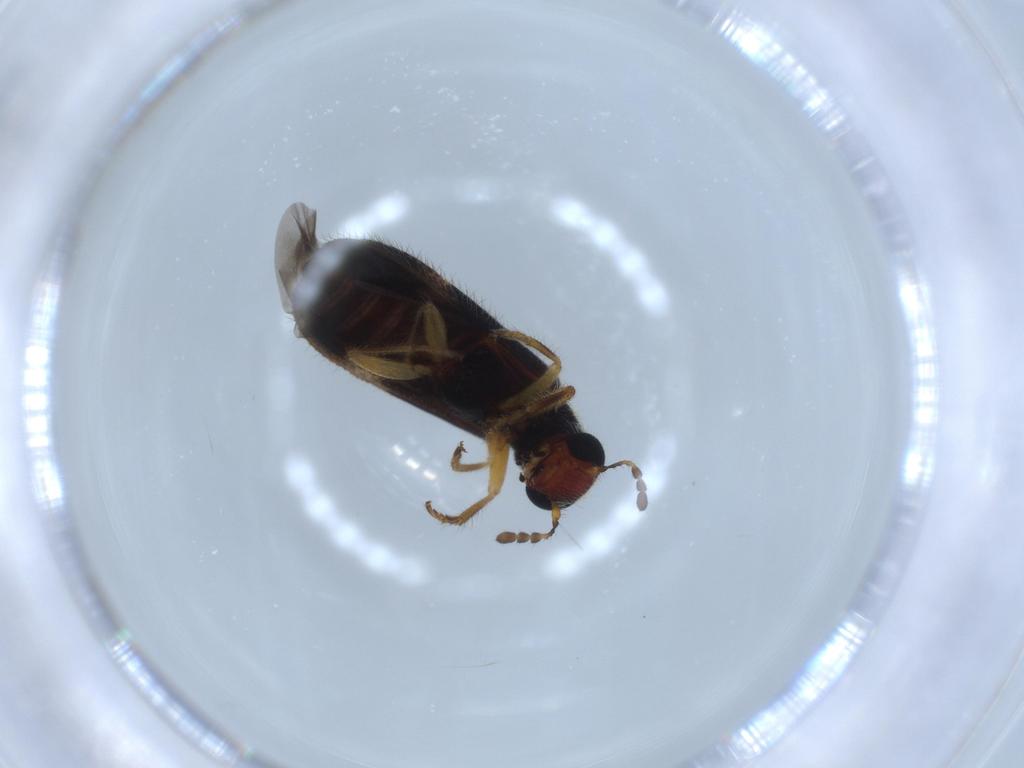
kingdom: Animalia
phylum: Arthropoda
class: Insecta
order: Coleoptera
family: Cleridae
